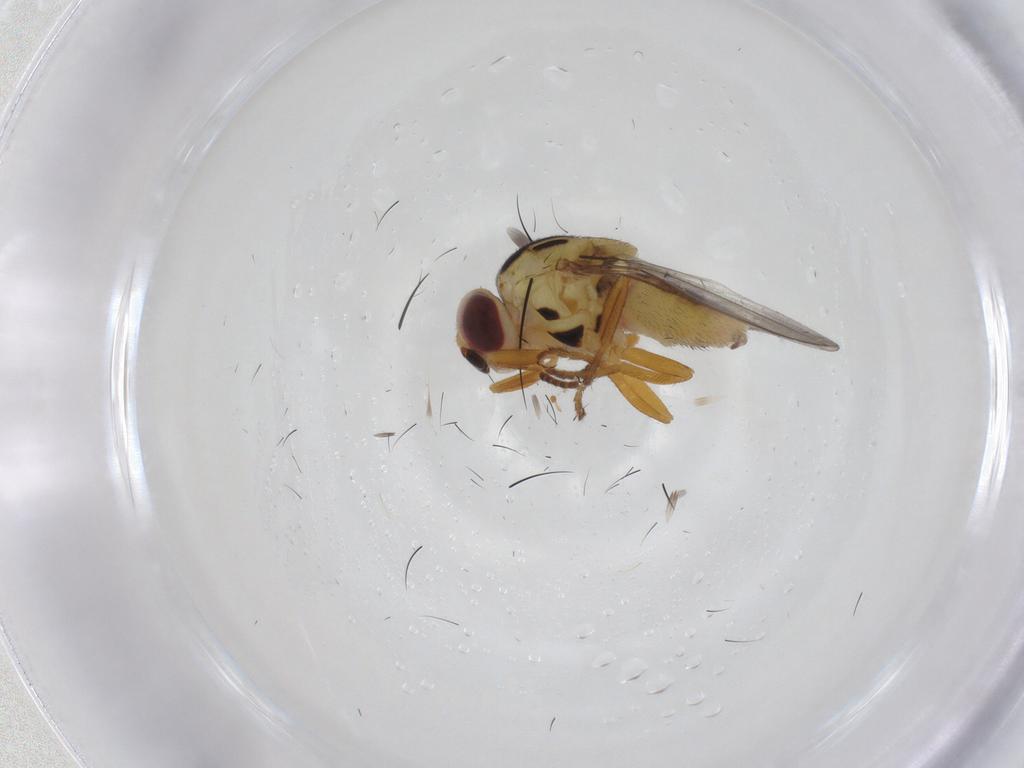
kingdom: Animalia
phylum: Arthropoda
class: Insecta
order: Diptera
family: Chloropidae
